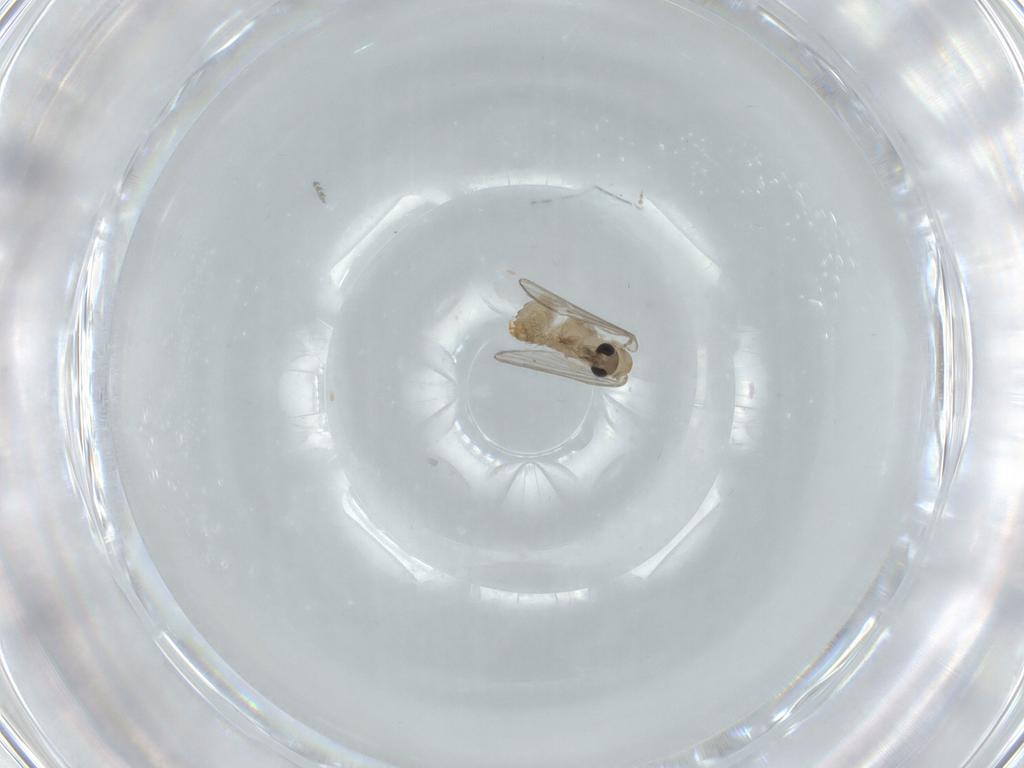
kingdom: Animalia
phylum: Arthropoda
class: Insecta
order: Diptera
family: Psychodidae
